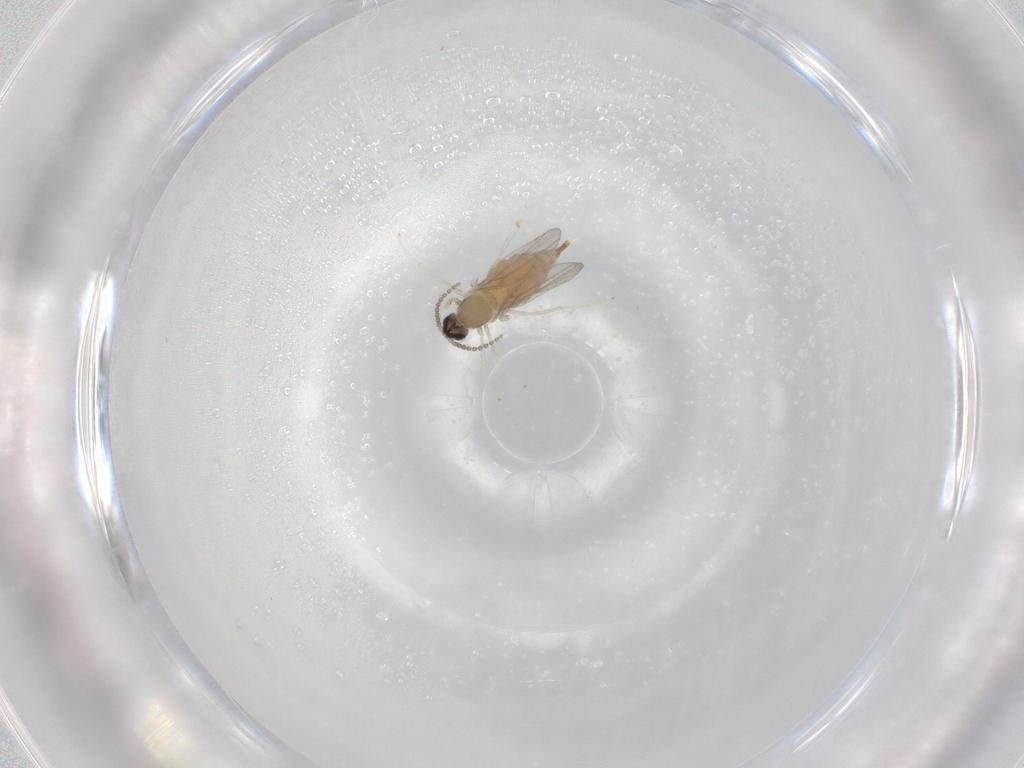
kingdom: Animalia
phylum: Arthropoda
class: Insecta
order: Diptera
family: Cecidomyiidae
